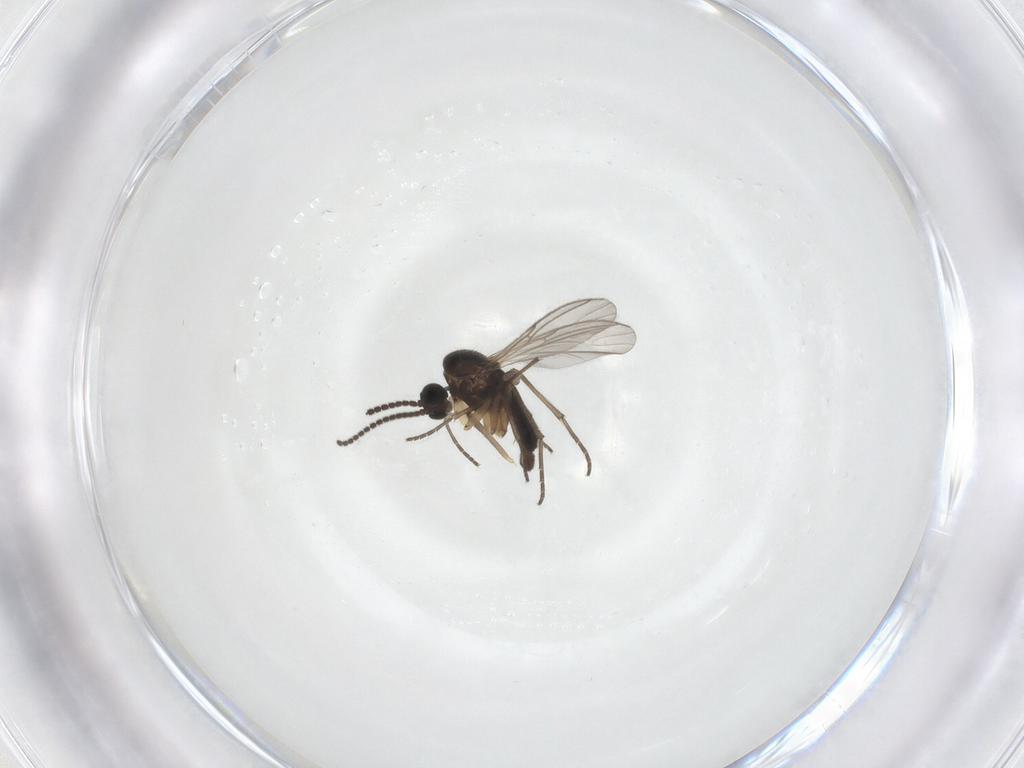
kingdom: Animalia
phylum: Arthropoda
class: Insecta
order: Diptera
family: Sciaridae
